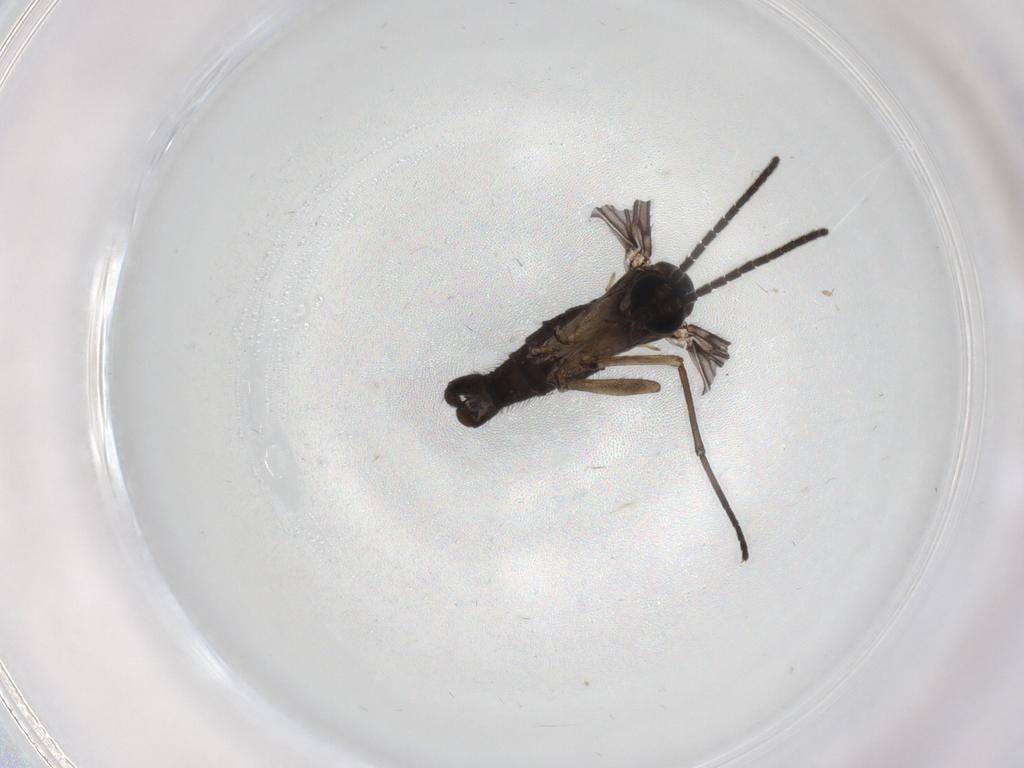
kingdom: Animalia
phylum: Arthropoda
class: Insecta
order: Diptera
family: Sciaridae
